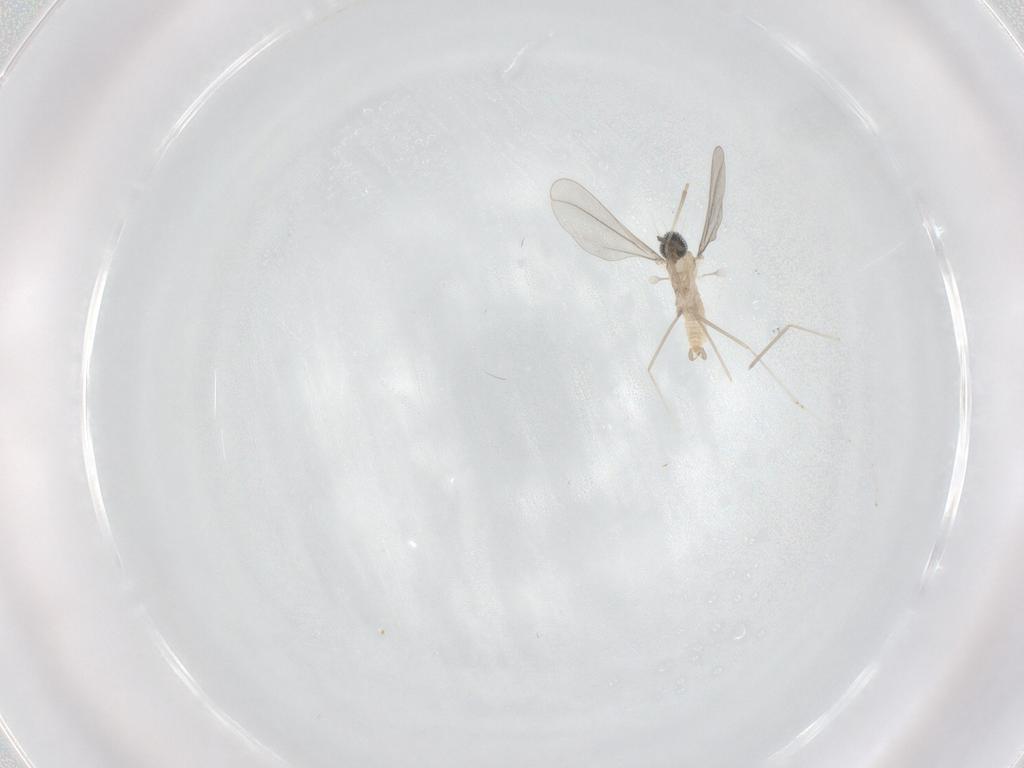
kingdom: Animalia
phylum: Arthropoda
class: Insecta
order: Diptera
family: Cecidomyiidae
